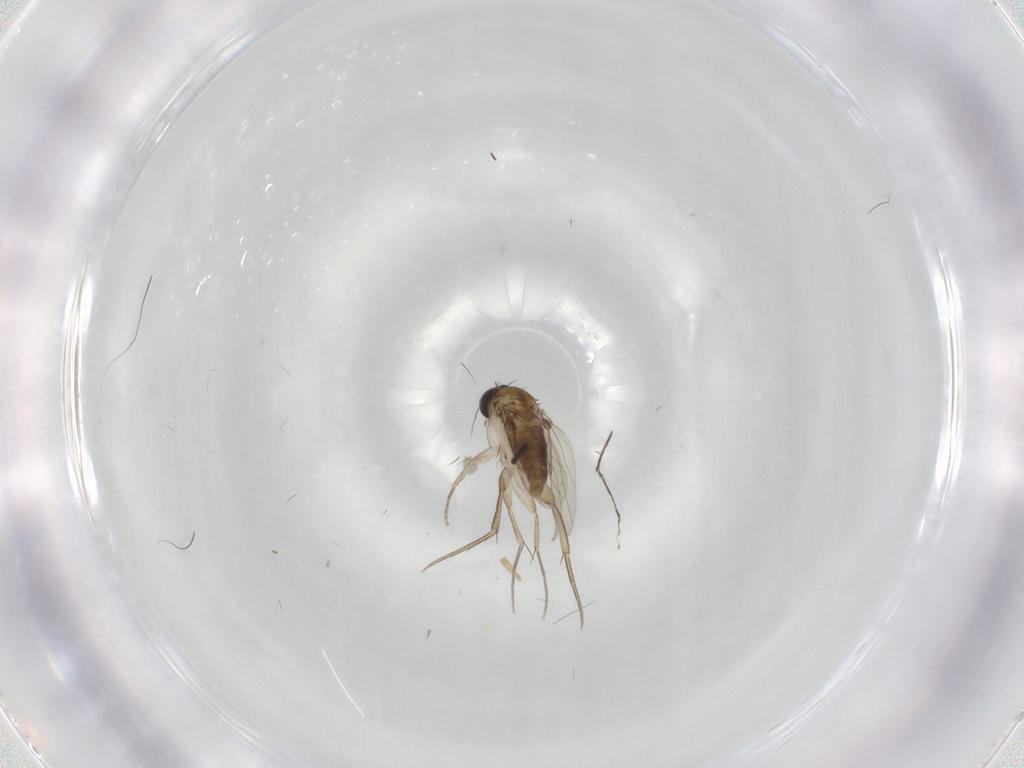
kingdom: Animalia
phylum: Arthropoda
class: Insecta
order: Diptera
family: Phoridae
